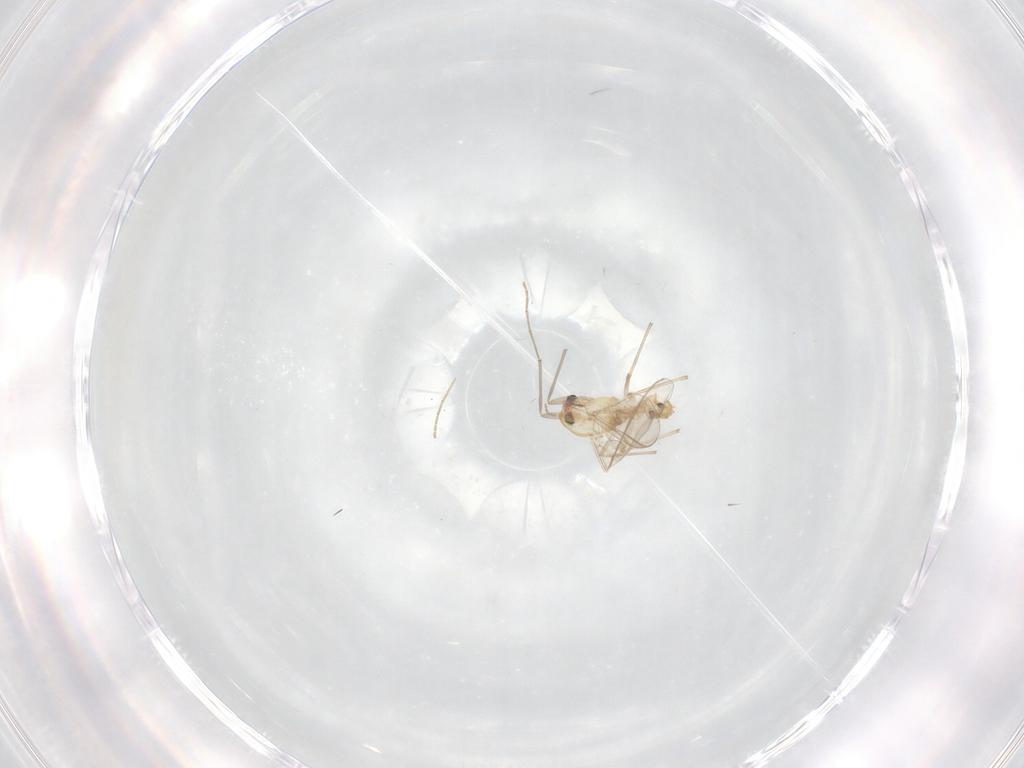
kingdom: Animalia
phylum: Arthropoda
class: Insecta
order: Diptera
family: Chironomidae
